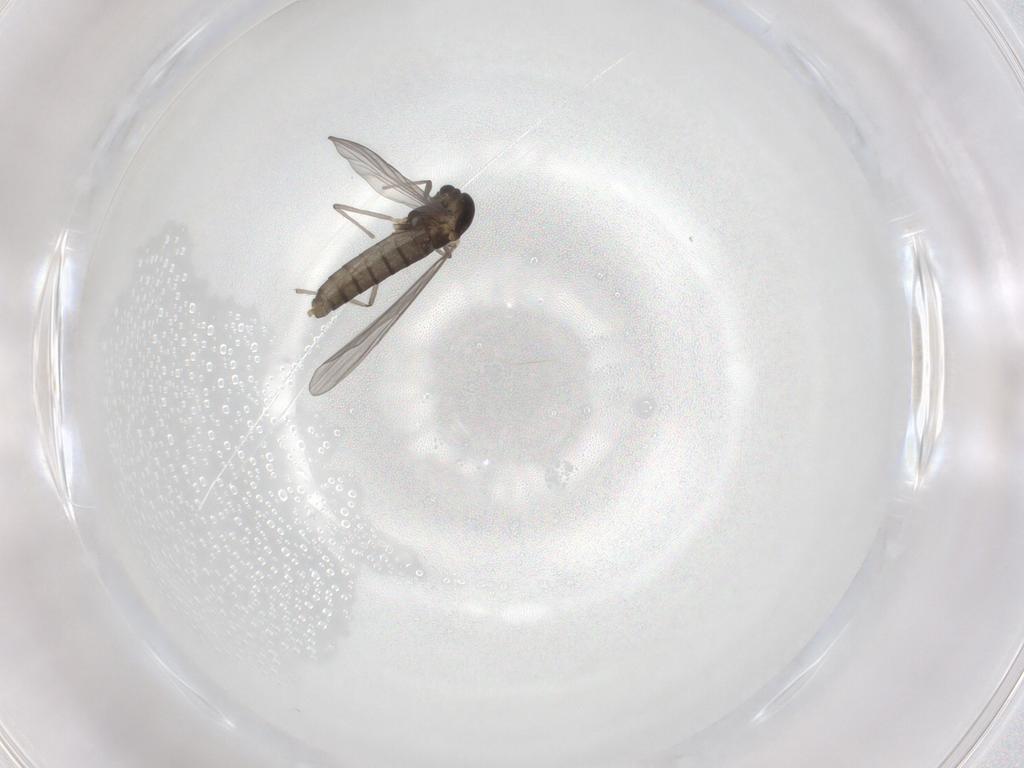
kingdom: Animalia
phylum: Arthropoda
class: Insecta
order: Diptera
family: Chironomidae
